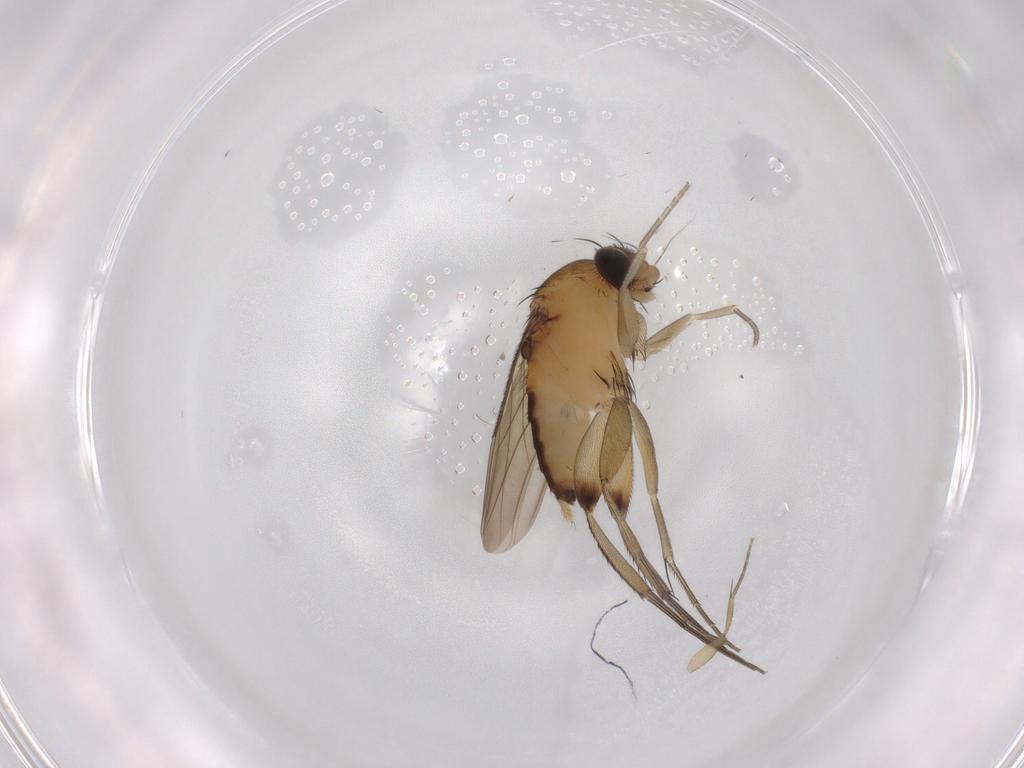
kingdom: Animalia
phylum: Arthropoda
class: Insecta
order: Diptera
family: Phoridae
